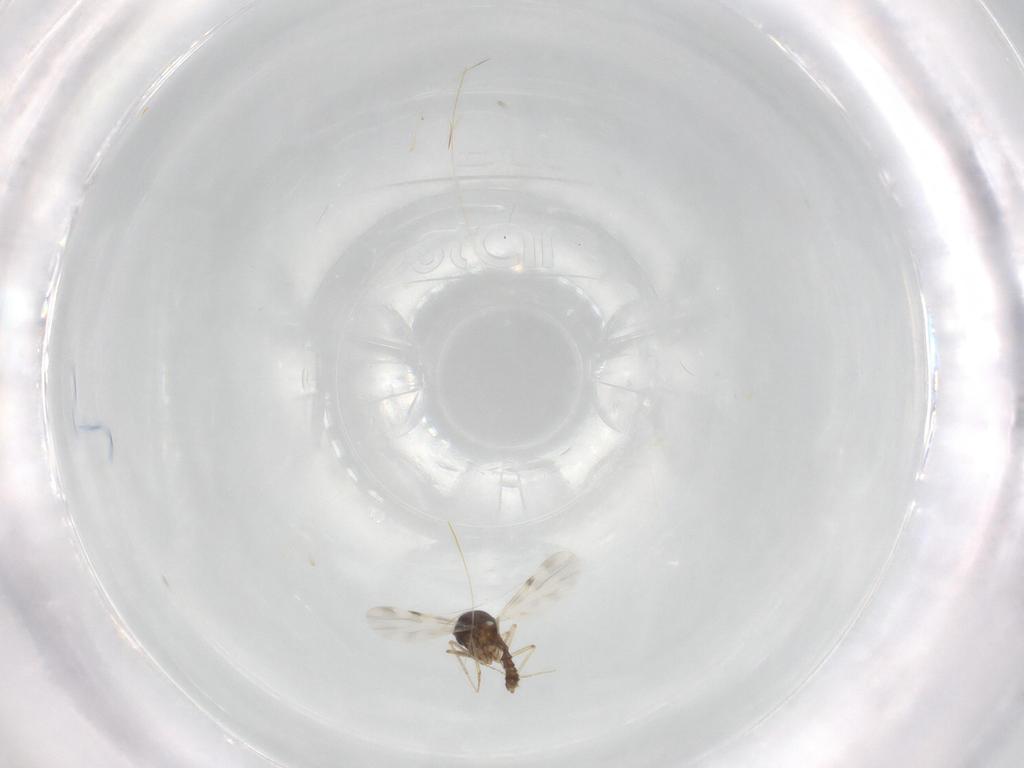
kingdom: Animalia
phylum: Arthropoda
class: Insecta
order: Diptera
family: Ceratopogonidae
